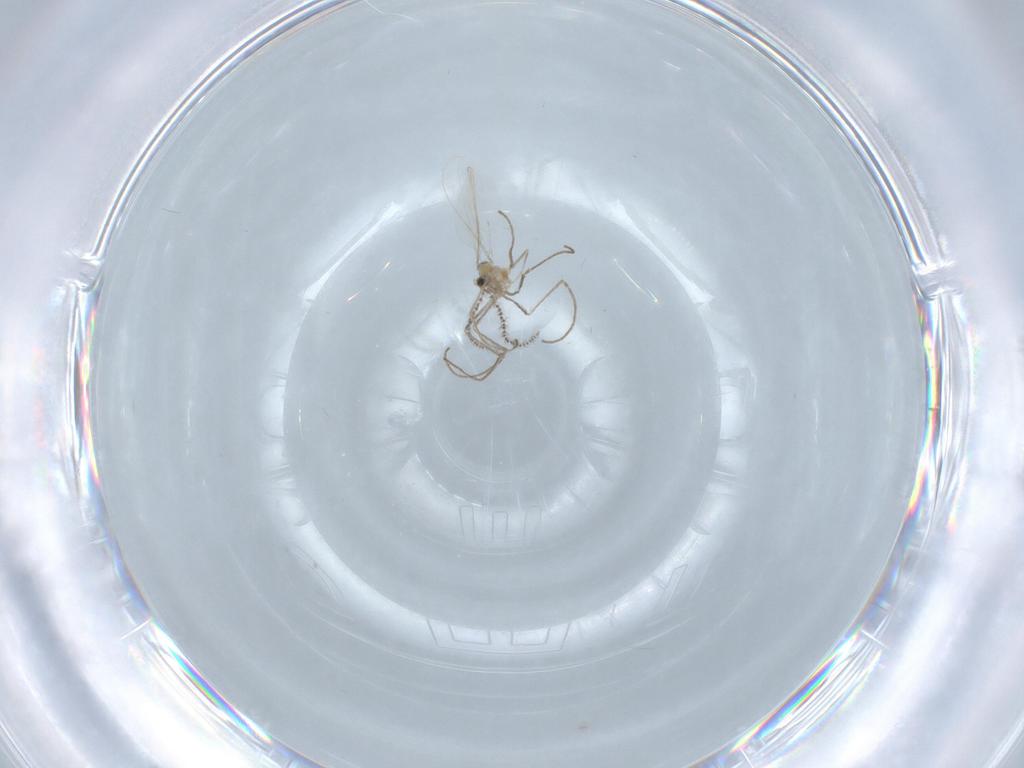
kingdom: Animalia
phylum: Arthropoda
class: Insecta
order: Diptera
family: Cecidomyiidae
